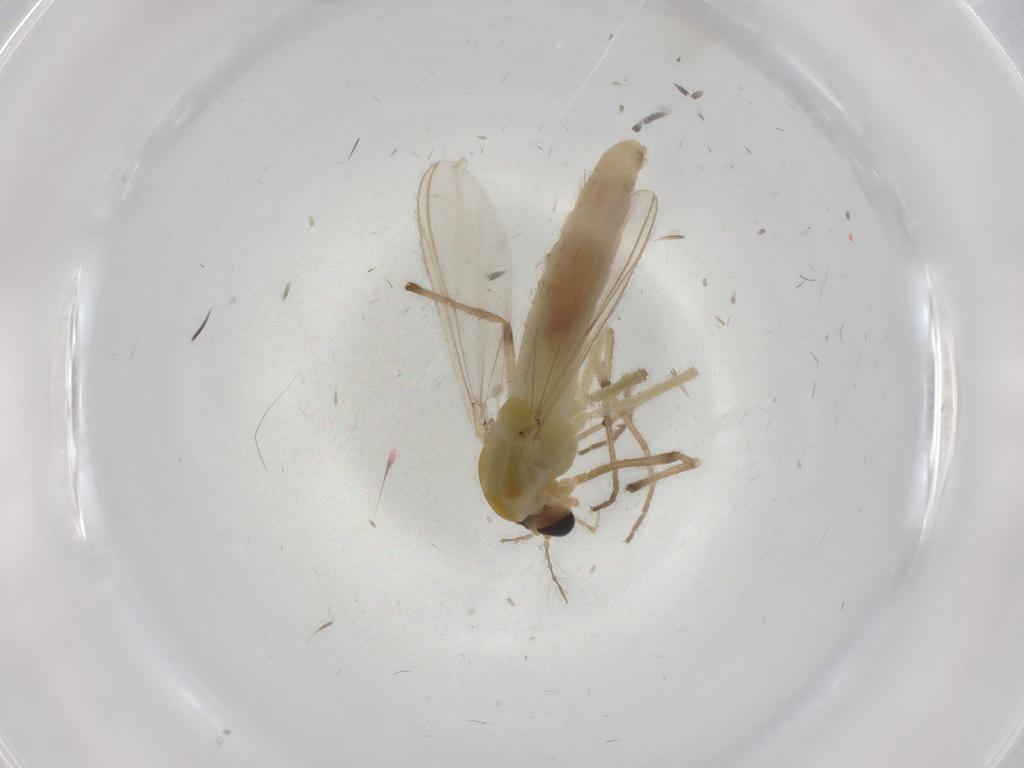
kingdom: Animalia
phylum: Arthropoda
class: Insecta
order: Diptera
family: Chironomidae
